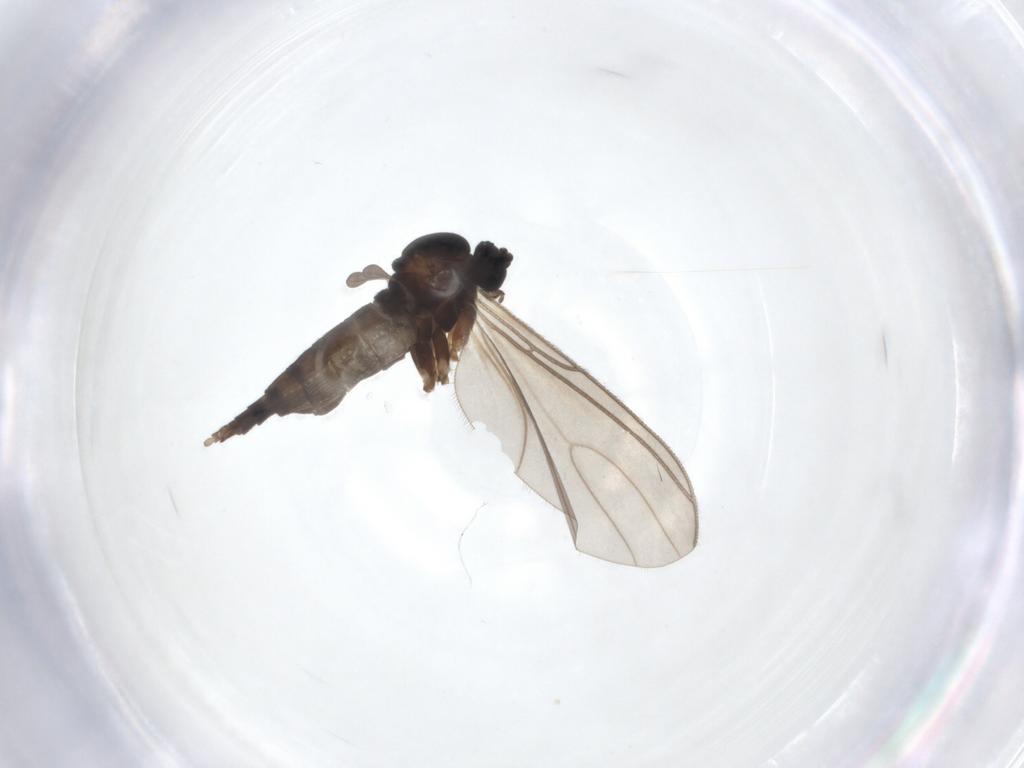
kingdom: Animalia
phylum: Arthropoda
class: Insecta
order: Diptera
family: Sciaridae
